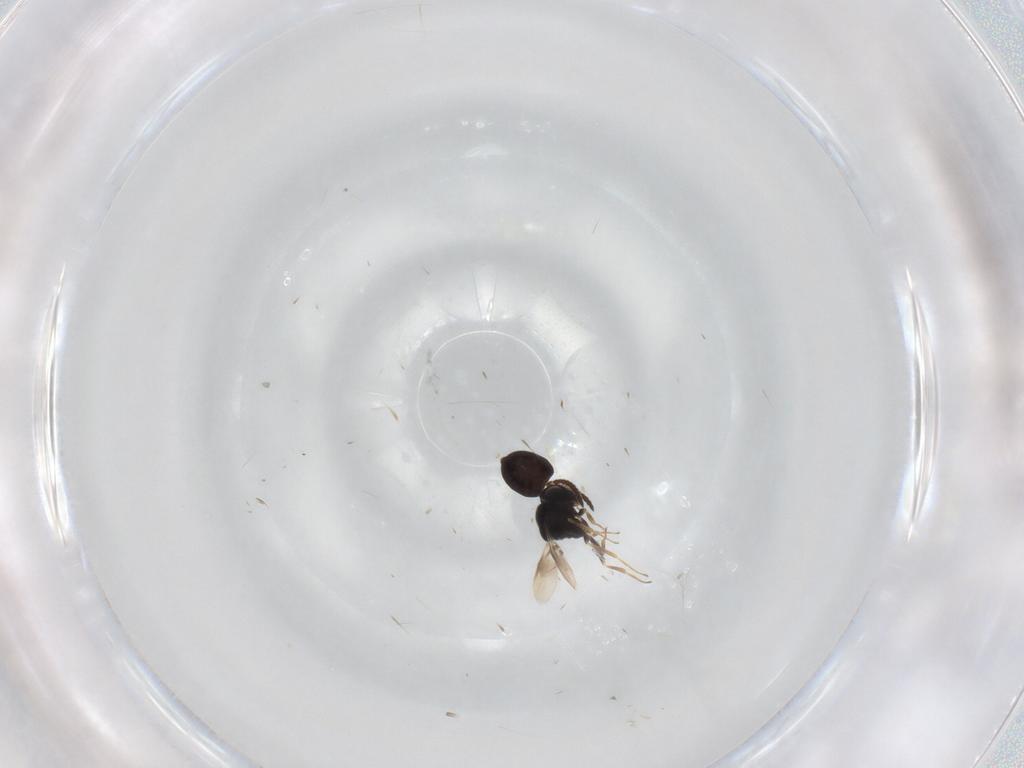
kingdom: Animalia
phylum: Arthropoda
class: Insecta
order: Hymenoptera
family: Scelionidae
